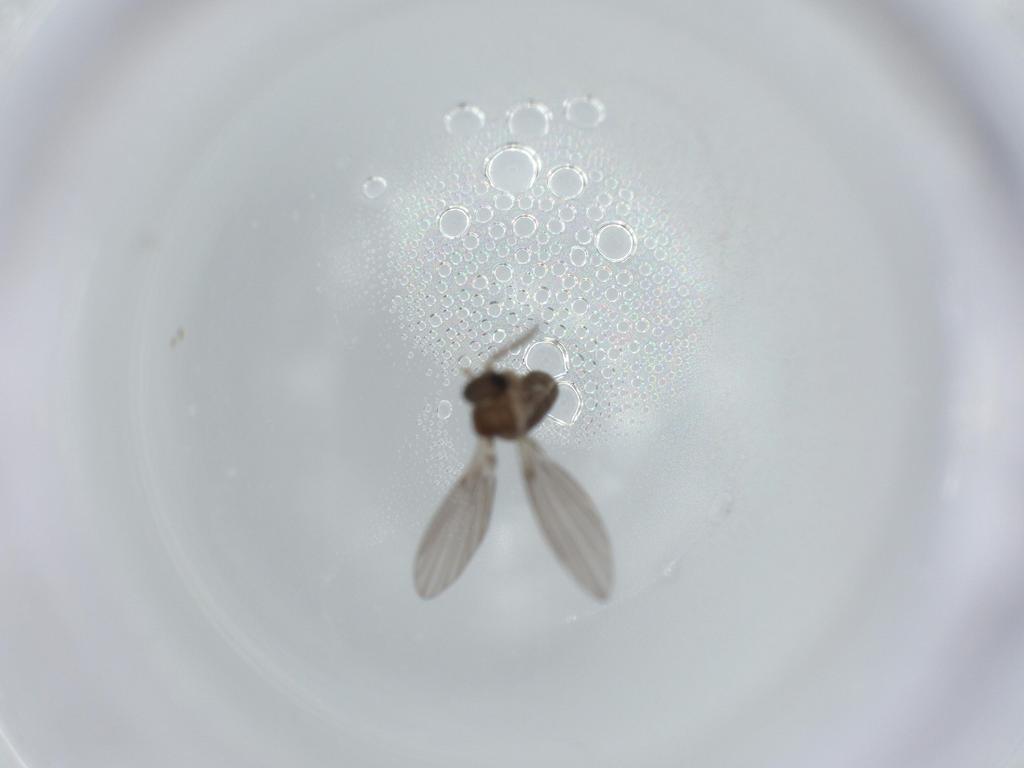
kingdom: Animalia
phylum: Arthropoda
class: Insecta
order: Diptera
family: Psychodidae
